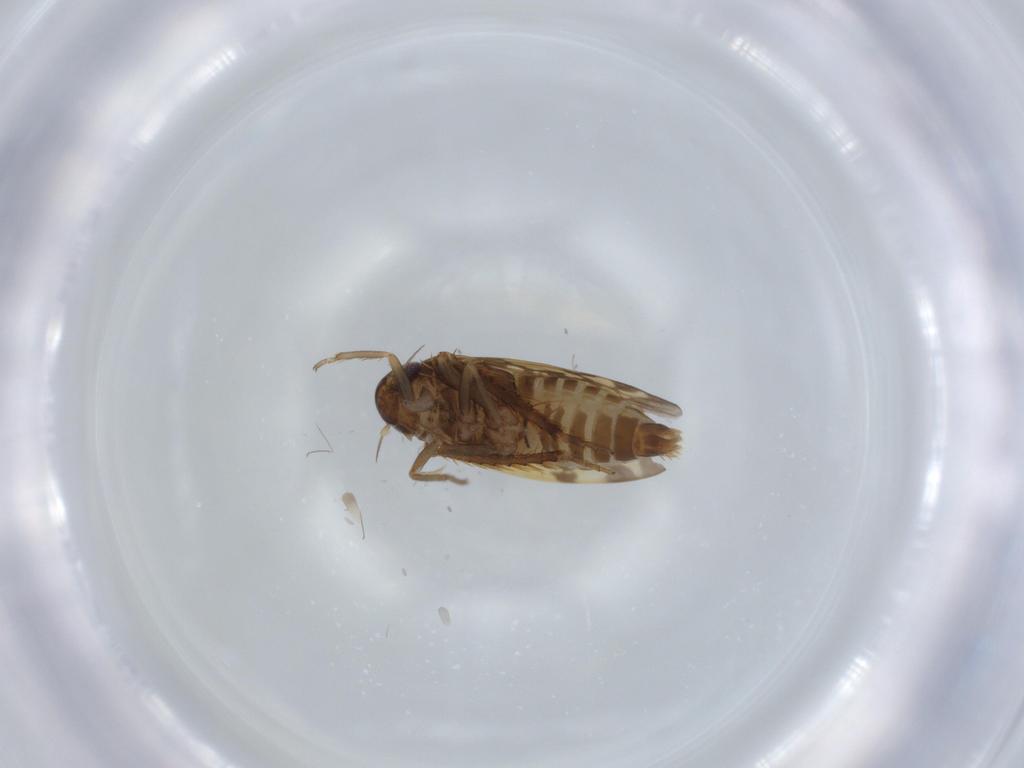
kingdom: Animalia
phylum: Arthropoda
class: Insecta
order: Hemiptera
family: Cicadellidae
